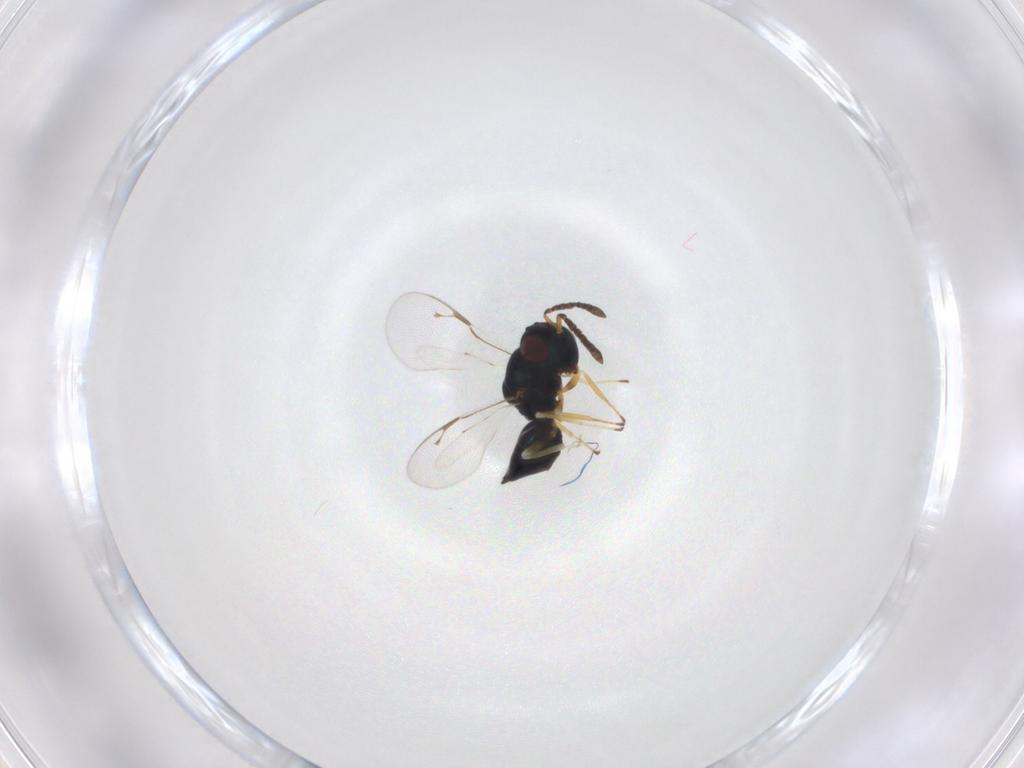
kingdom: Animalia
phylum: Arthropoda
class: Insecta
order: Hymenoptera
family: Pteromalidae
